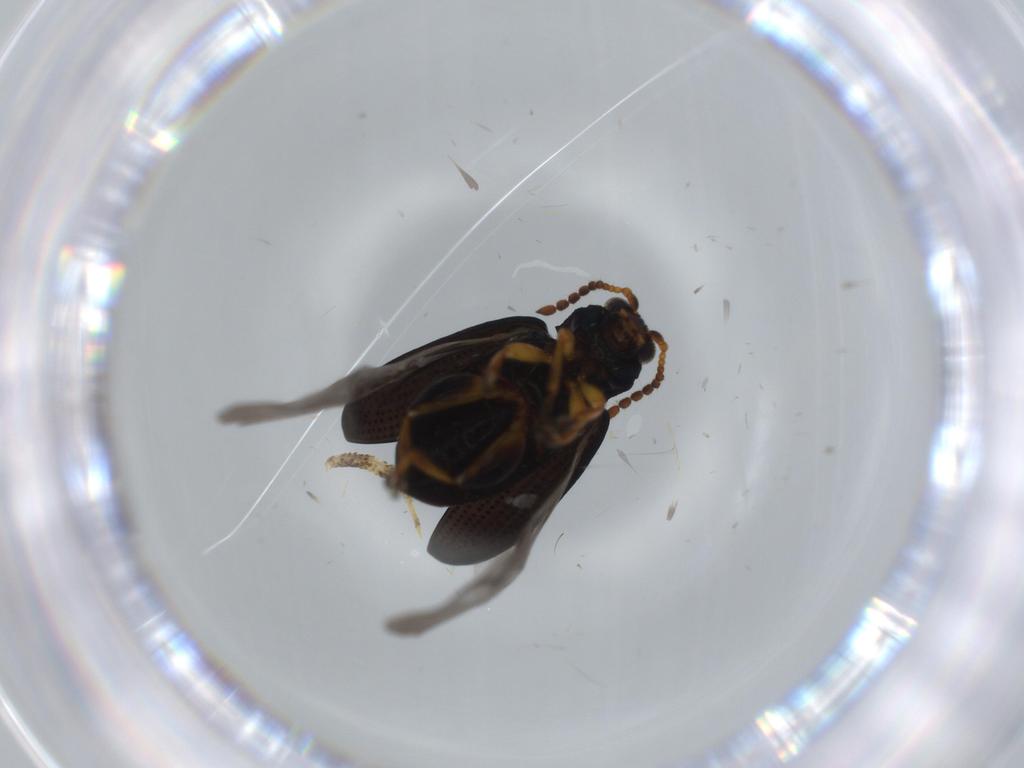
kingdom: Animalia
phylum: Arthropoda
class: Insecta
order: Coleoptera
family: Chrysomelidae
